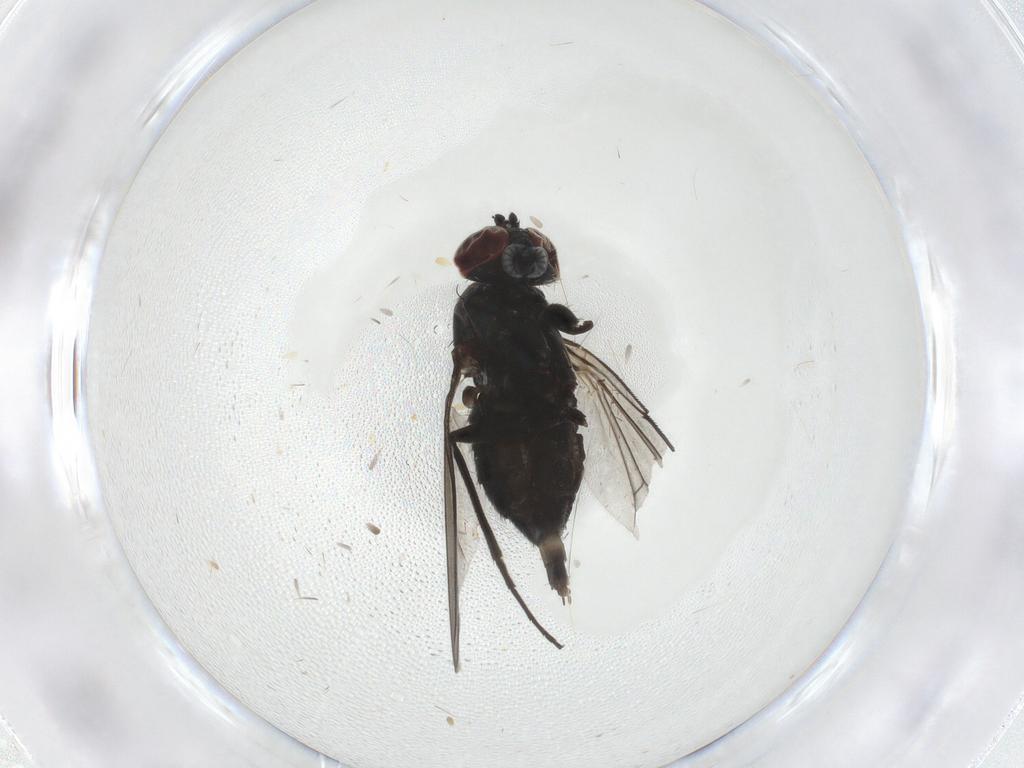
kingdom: Animalia
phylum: Arthropoda
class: Insecta
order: Diptera
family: Dolichopodidae
